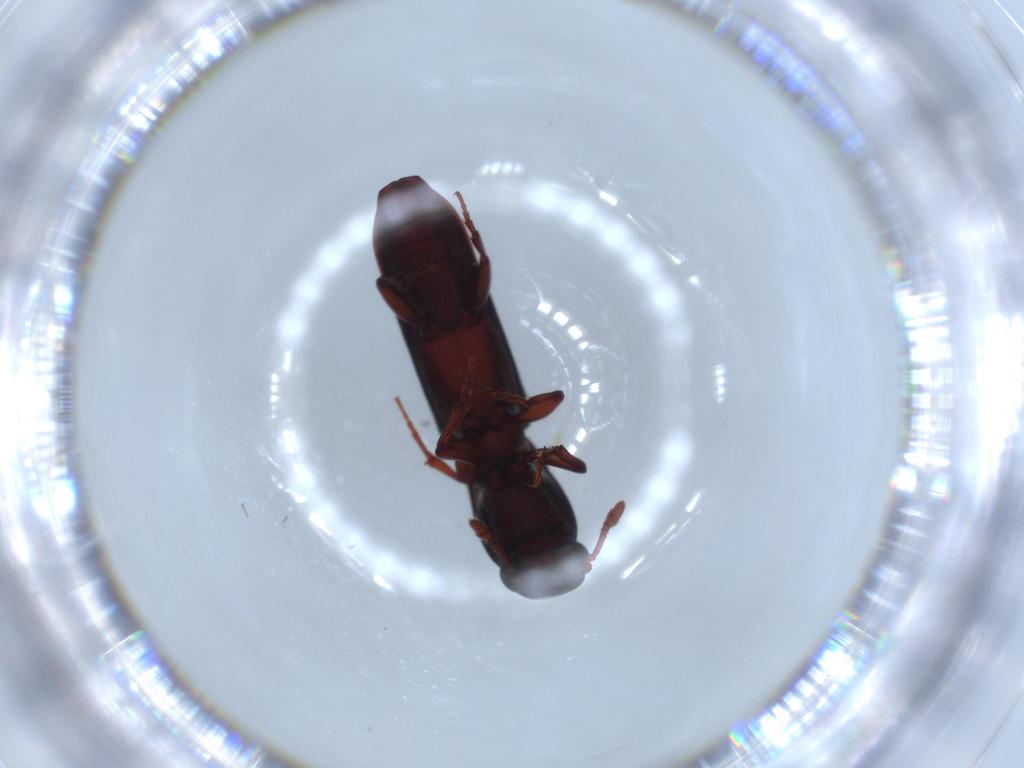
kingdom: Animalia
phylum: Arthropoda
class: Insecta
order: Coleoptera
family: Bothrideridae
